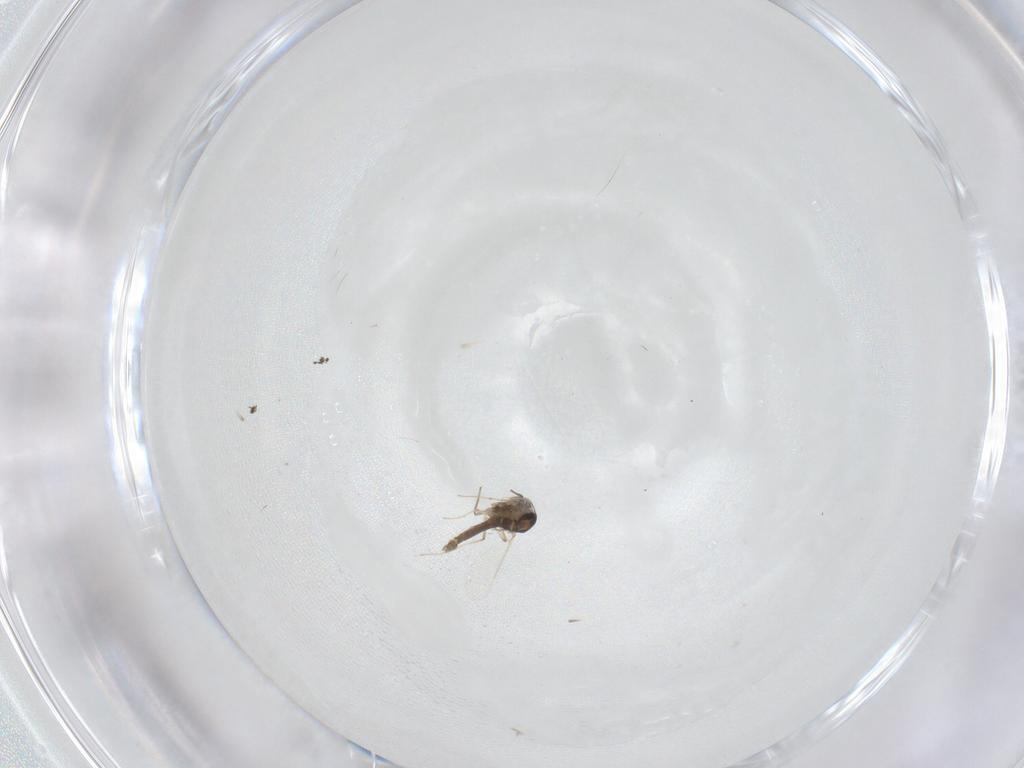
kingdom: Animalia
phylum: Arthropoda
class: Insecta
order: Diptera
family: Chironomidae
